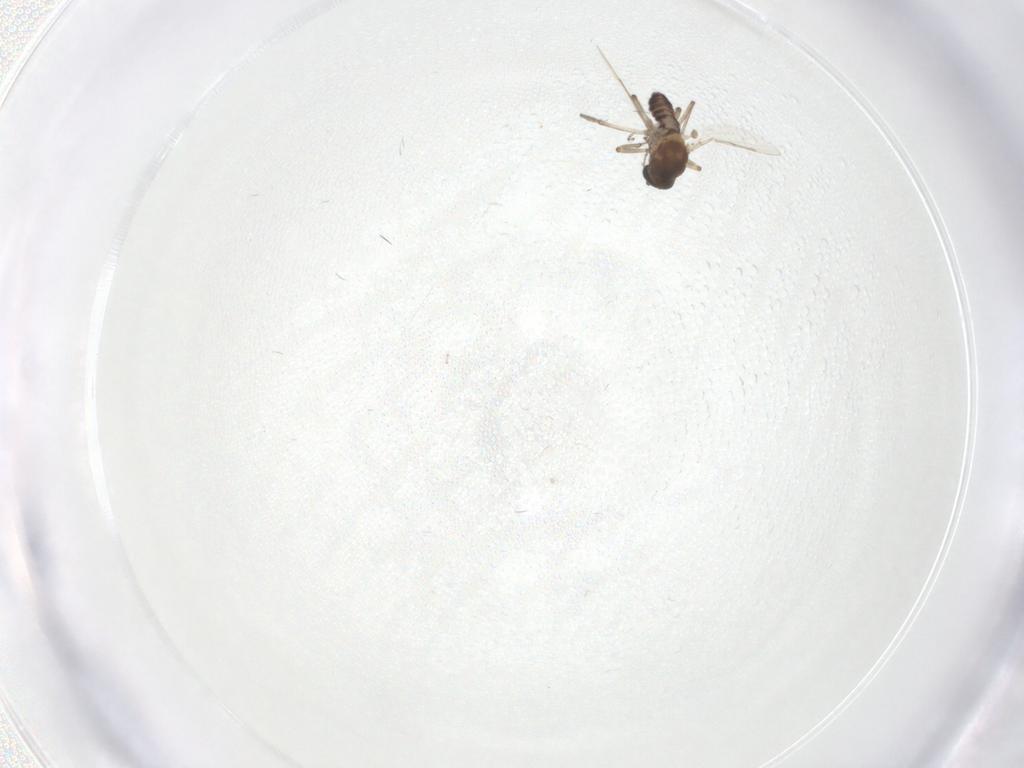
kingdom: Animalia
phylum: Arthropoda
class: Insecta
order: Diptera
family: Ceratopogonidae
